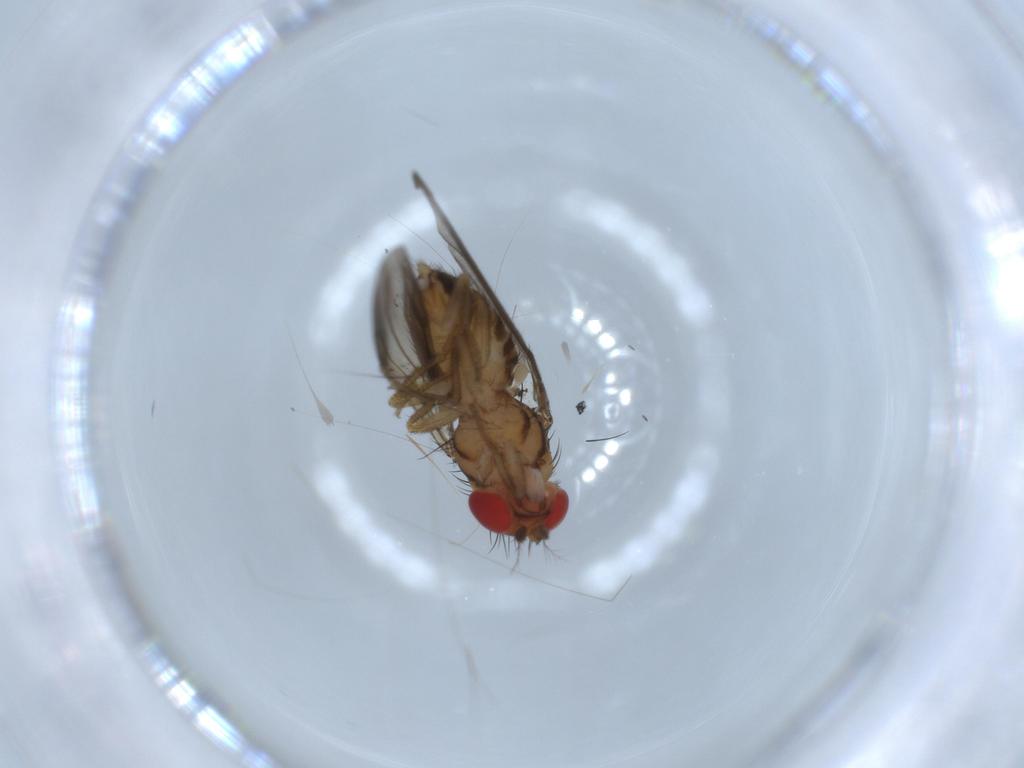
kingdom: Animalia
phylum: Arthropoda
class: Insecta
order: Diptera
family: Drosophilidae
